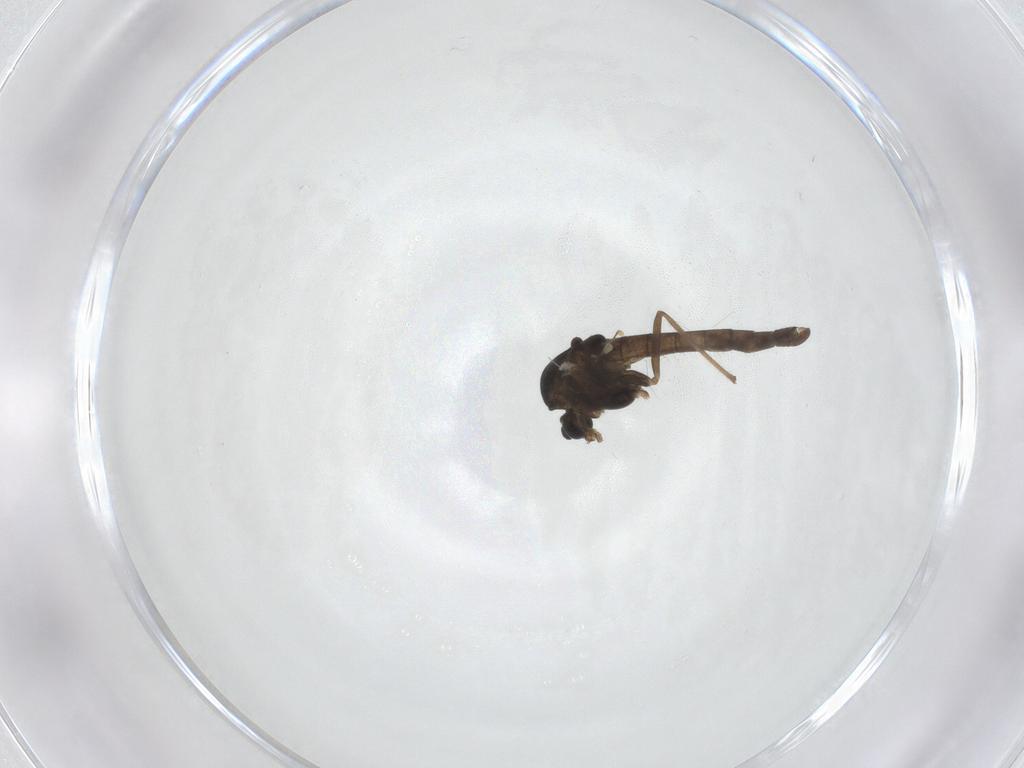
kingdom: Animalia
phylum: Arthropoda
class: Insecta
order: Diptera
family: Chironomidae
